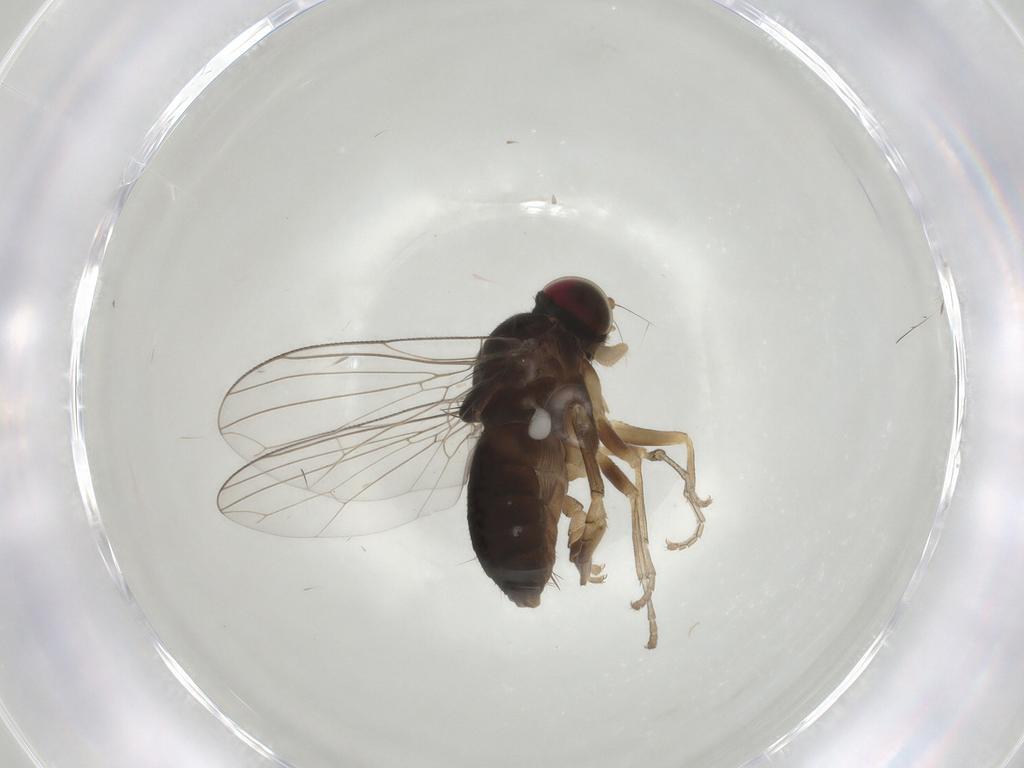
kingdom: Animalia
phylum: Arthropoda
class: Insecta
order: Diptera
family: Platypezidae
